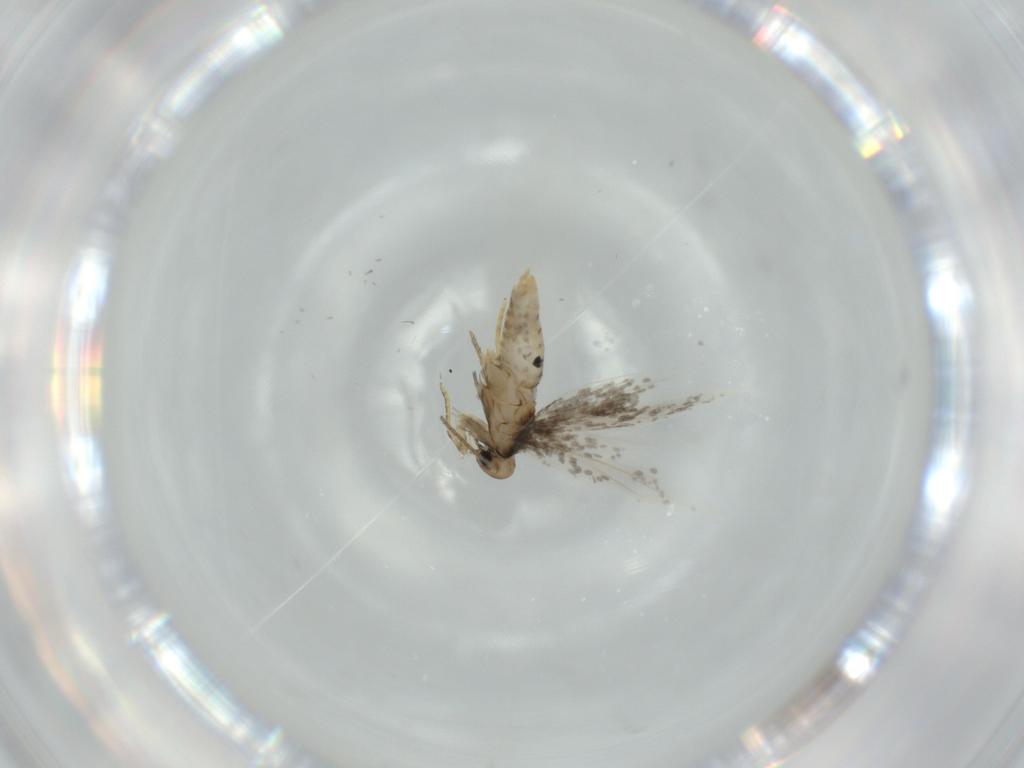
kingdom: Animalia
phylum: Arthropoda
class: Insecta
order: Lepidoptera
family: Heliozelidae
